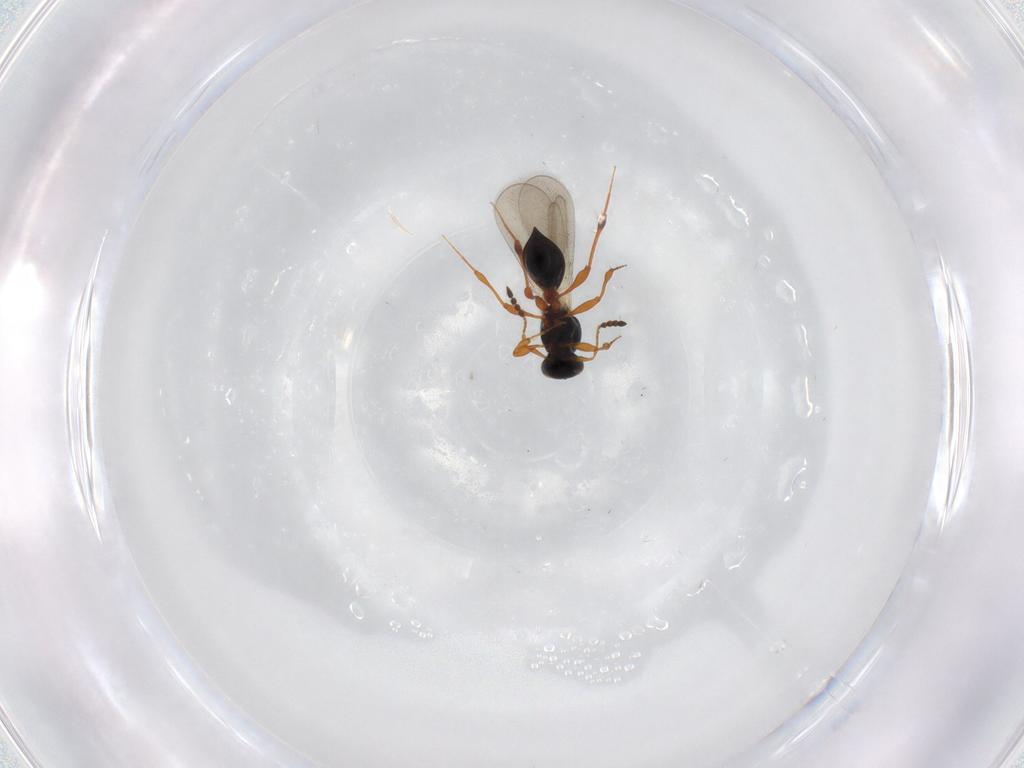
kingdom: Animalia
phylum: Arthropoda
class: Insecta
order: Hymenoptera
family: Platygastridae
